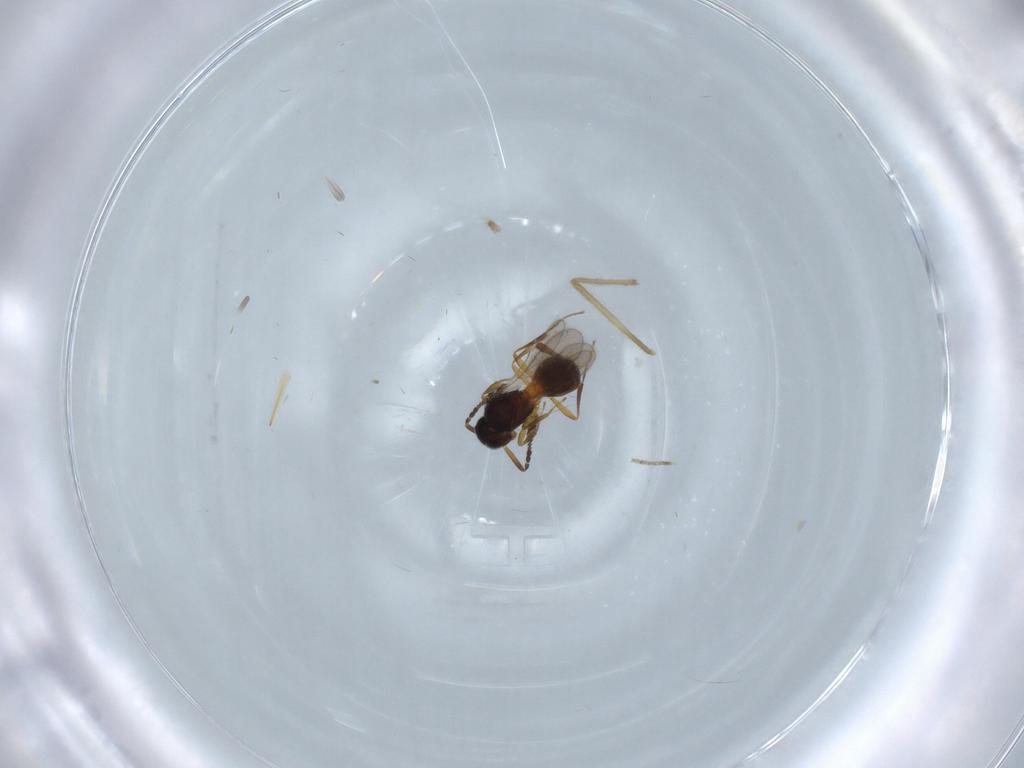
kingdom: Animalia
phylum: Arthropoda
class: Insecta
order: Hymenoptera
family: Scelionidae
